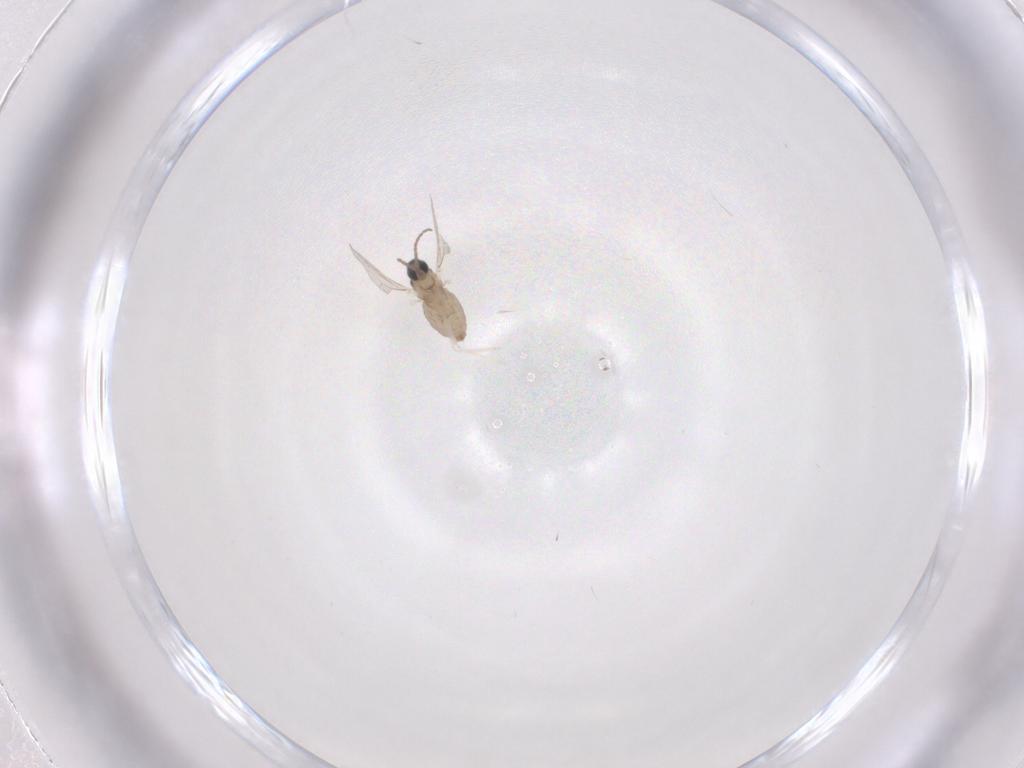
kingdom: Animalia
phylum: Arthropoda
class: Insecta
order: Diptera
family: Cecidomyiidae
